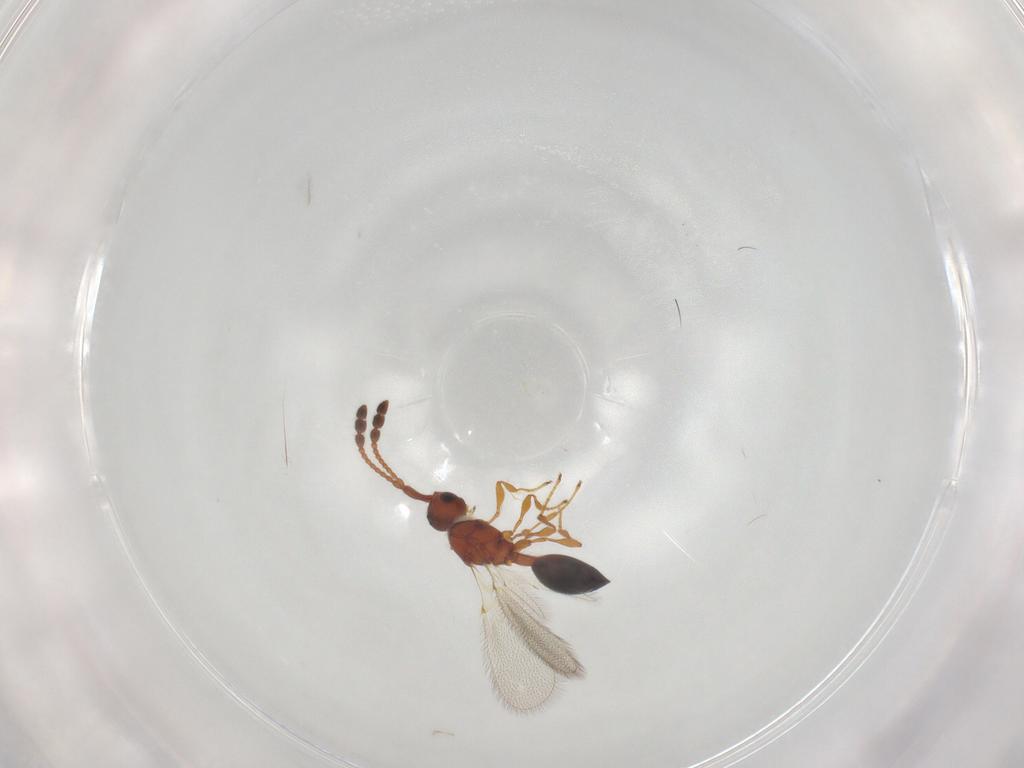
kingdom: Animalia
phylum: Arthropoda
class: Insecta
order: Hymenoptera
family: Diapriidae
